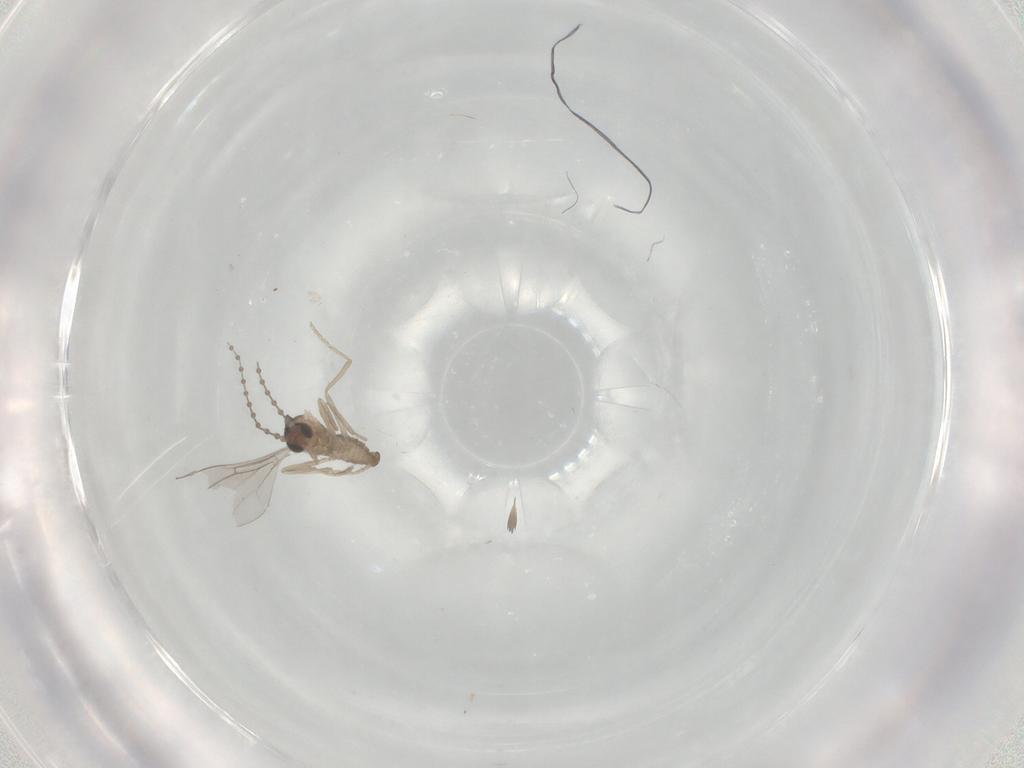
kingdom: Animalia
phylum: Arthropoda
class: Insecta
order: Diptera
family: Cecidomyiidae
